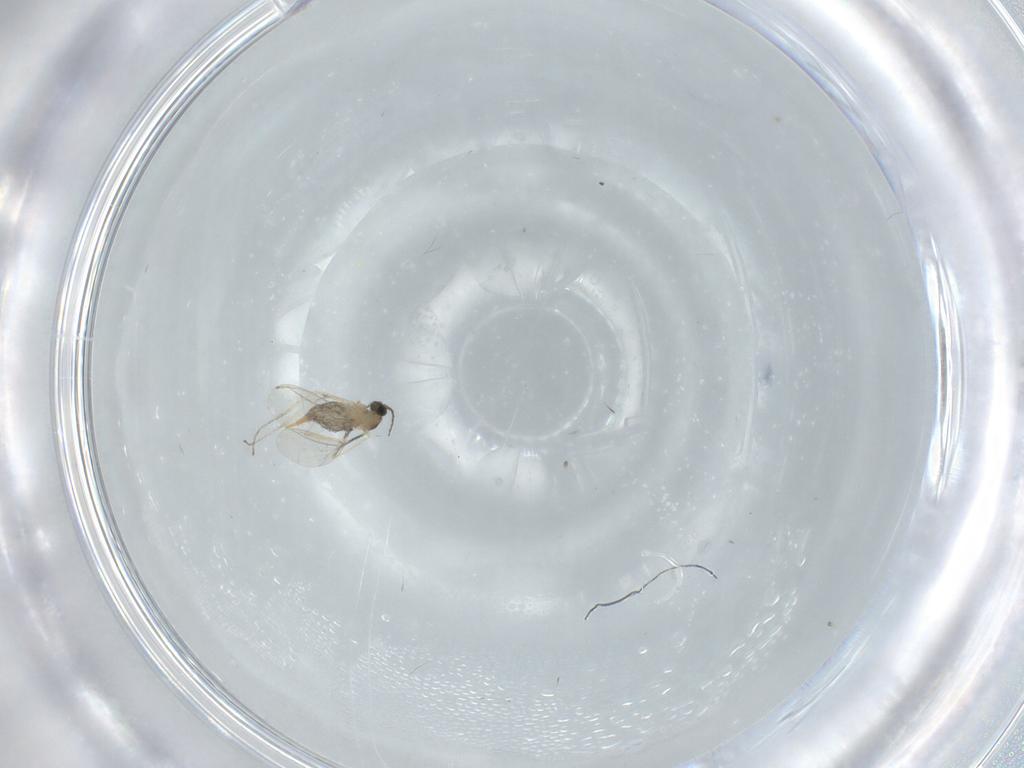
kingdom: Animalia
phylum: Arthropoda
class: Insecta
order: Diptera
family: Cecidomyiidae
